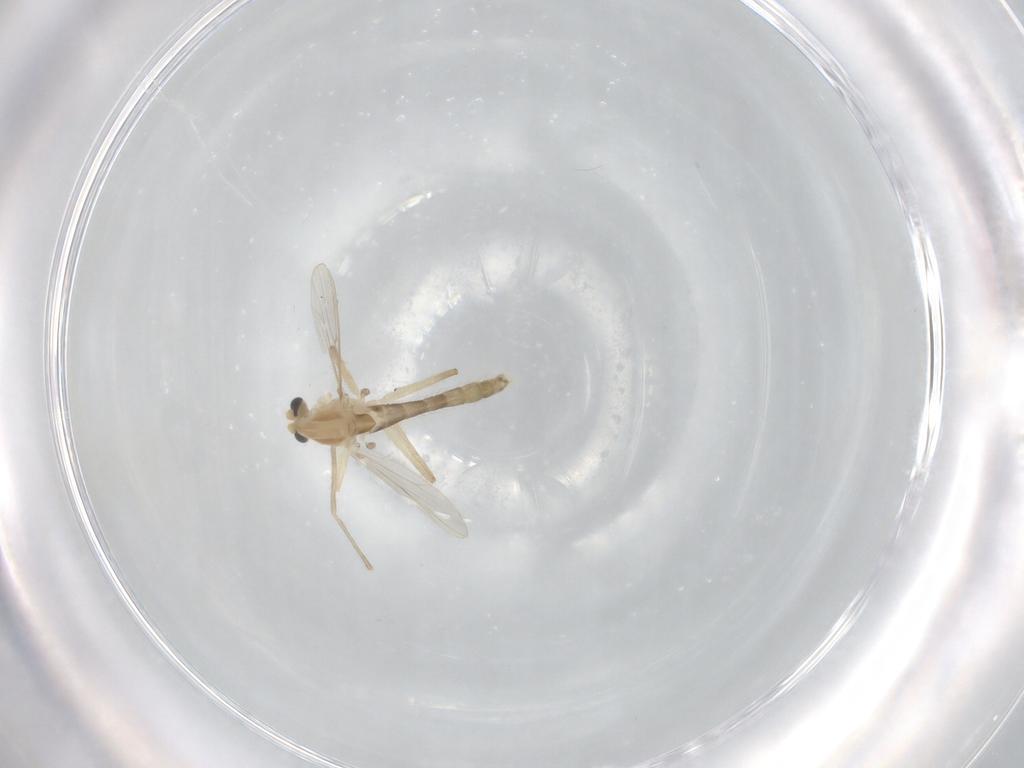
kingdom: Animalia
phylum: Arthropoda
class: Insecta
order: Diptera
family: Chironomidae
